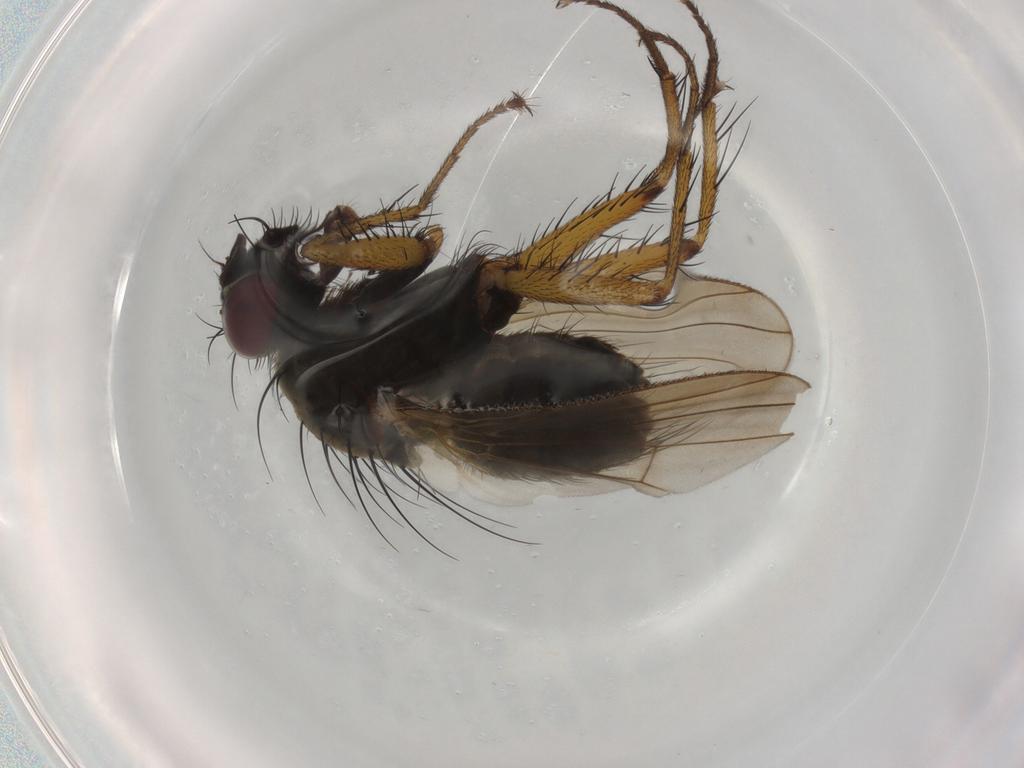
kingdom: Animalia
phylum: Arthropoda
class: Insecta
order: Diptera
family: Muscidae
